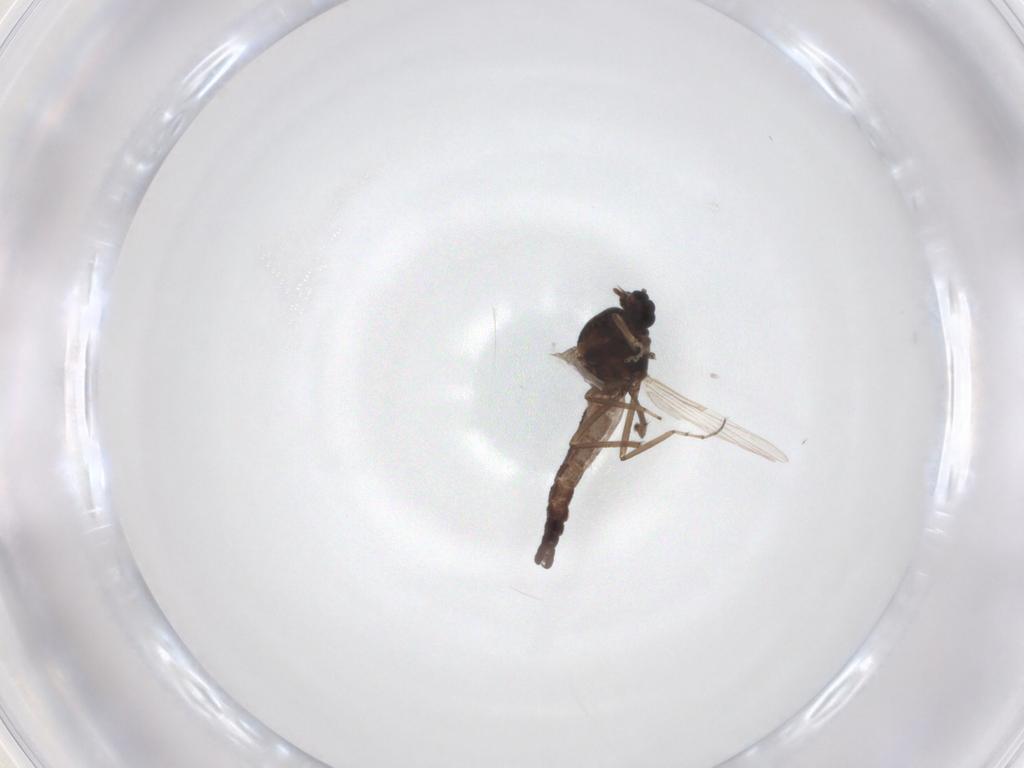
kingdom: Animalia
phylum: Arthropoda
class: Insecta
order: Diptera
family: Ceratopogonidae
